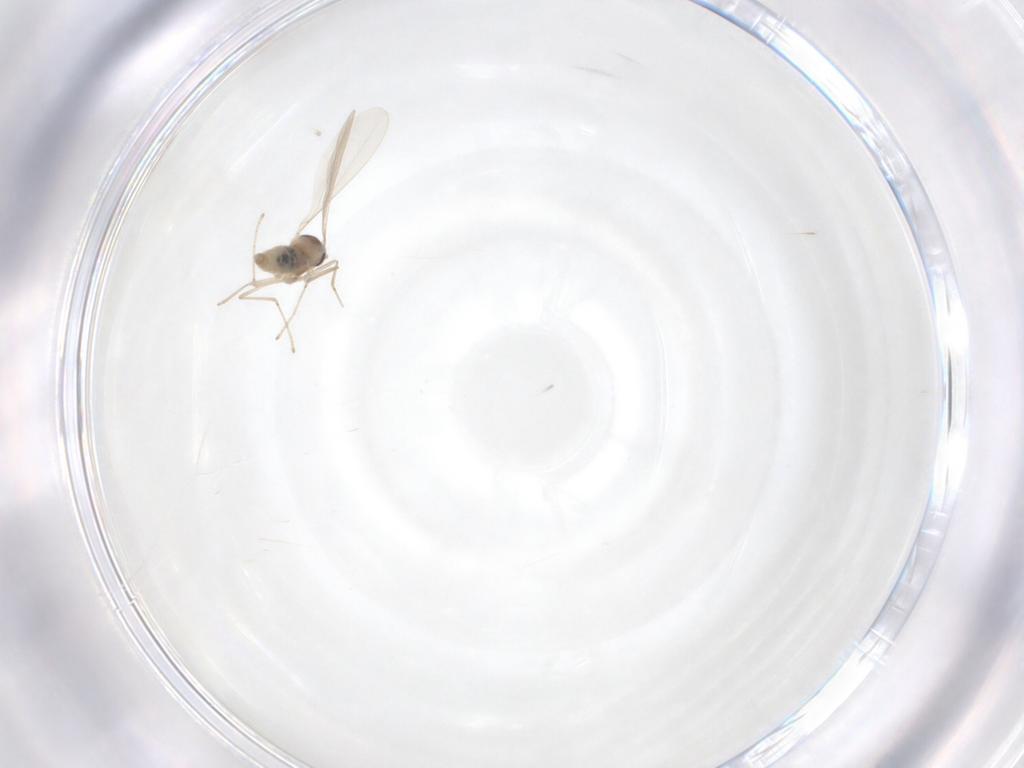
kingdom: Animalia
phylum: Arthropoda
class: Insecta
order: Diptera
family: Cecidomyiidae
